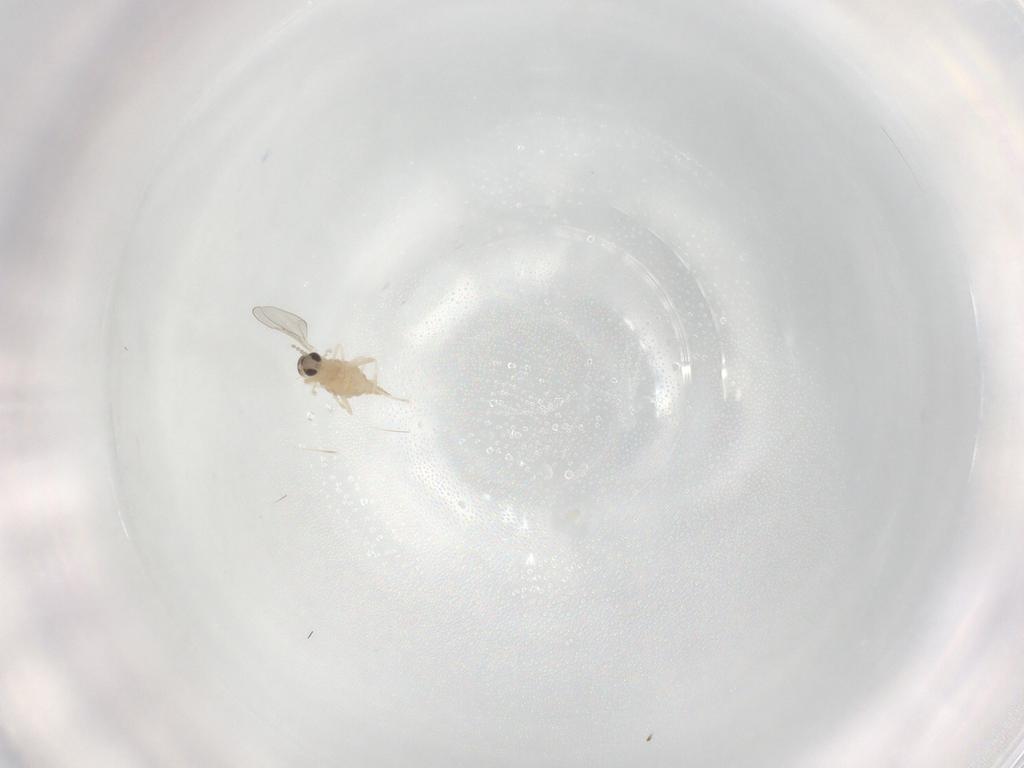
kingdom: Animalia
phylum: Arthropoda
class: Insecta
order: Diptera
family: Cecidomyiidae
